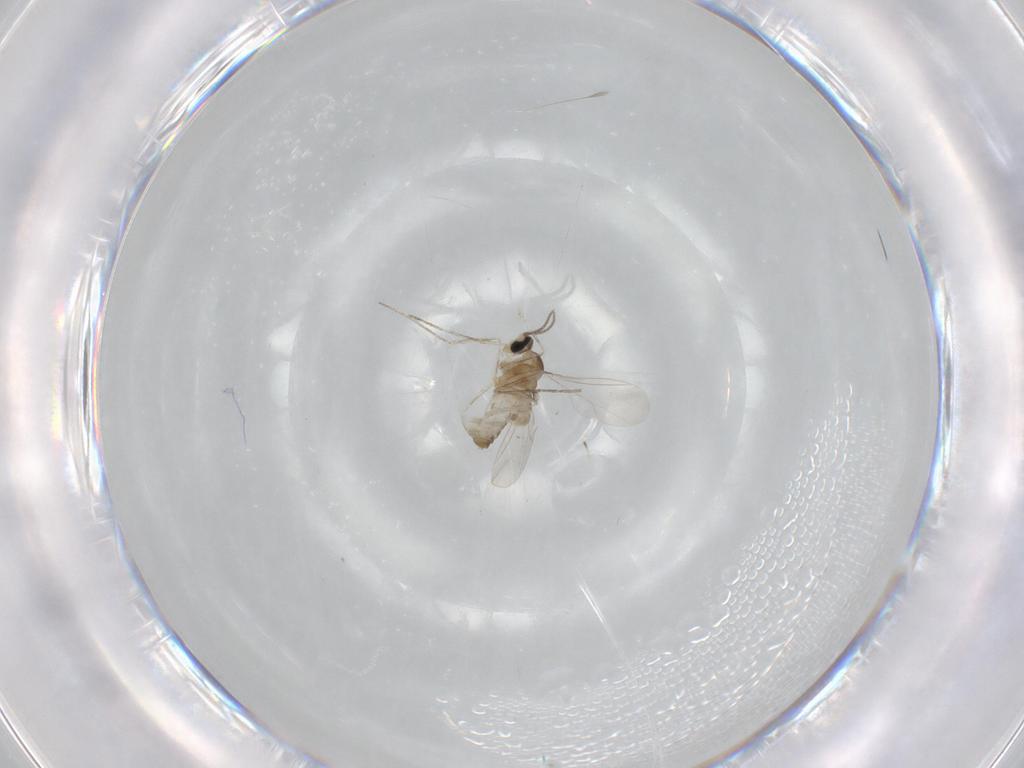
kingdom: Animalia
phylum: Arthropoda
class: Insecta
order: Diptera
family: Cecidomyiidae
